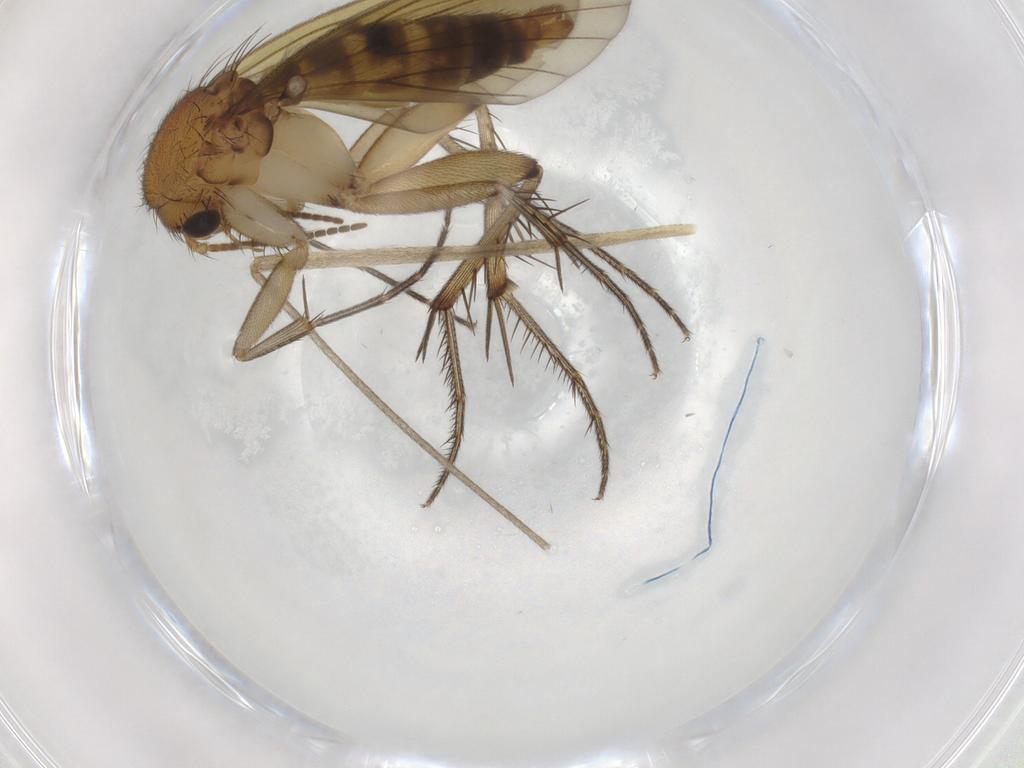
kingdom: Animalia
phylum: Arthropoda
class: Insecta
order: Diptera
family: Limoniidae
